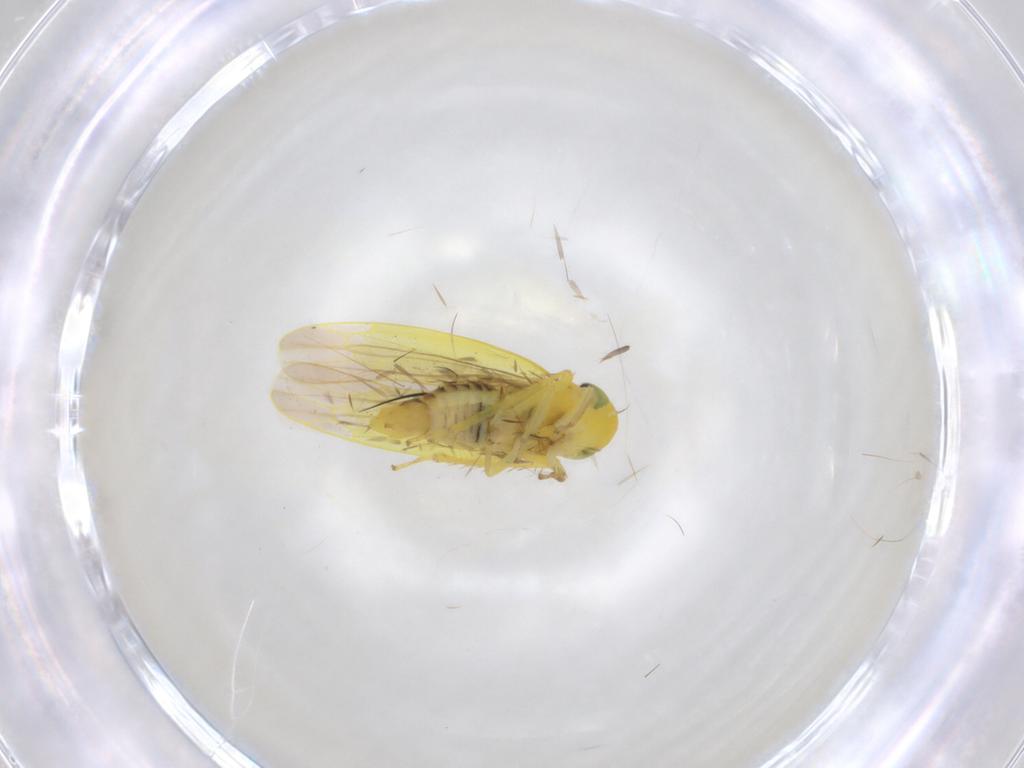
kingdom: Animalia
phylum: Arthropoda
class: Insecta
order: Hemiptera
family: Cicadellidae
